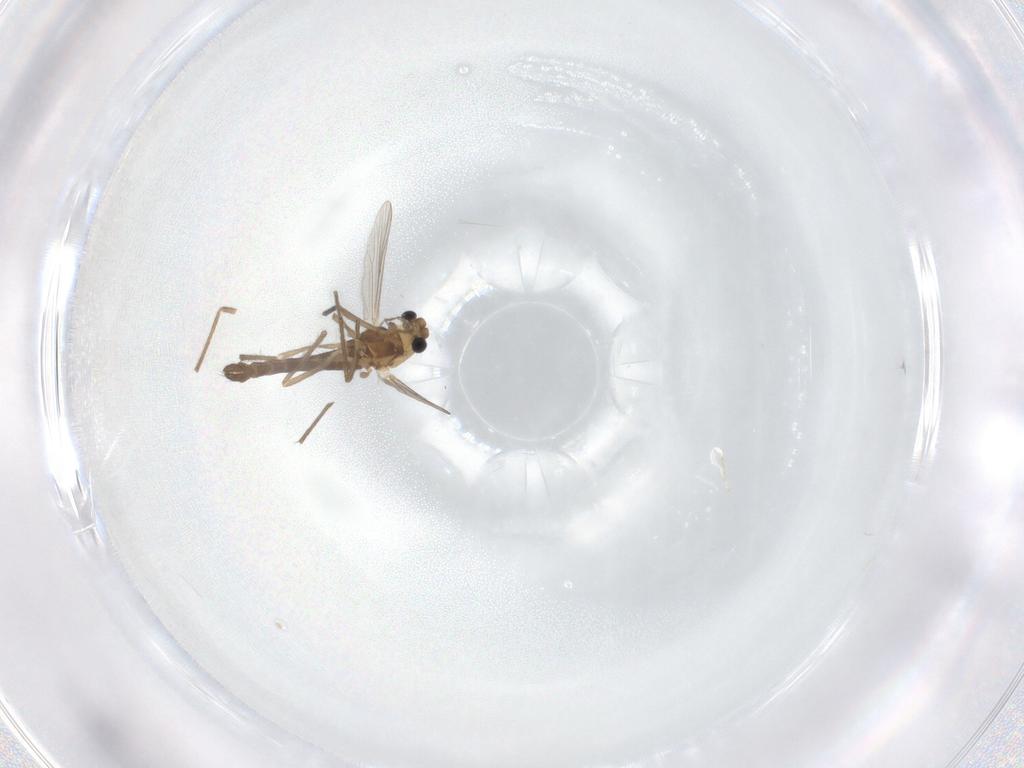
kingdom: Animalia
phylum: Arthropoda
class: Insecta
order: Diptera
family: Chironomidae
